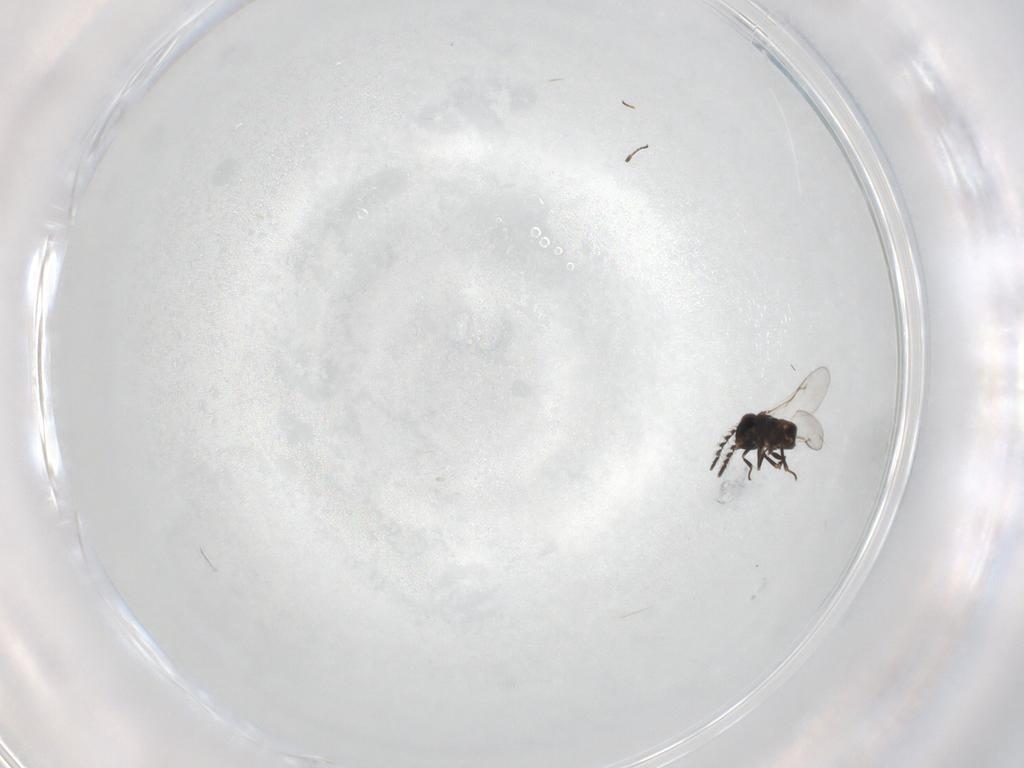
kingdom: Animalia
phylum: Arthropoda
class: Insecta
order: Hymenoptera
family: Encyrtidae
